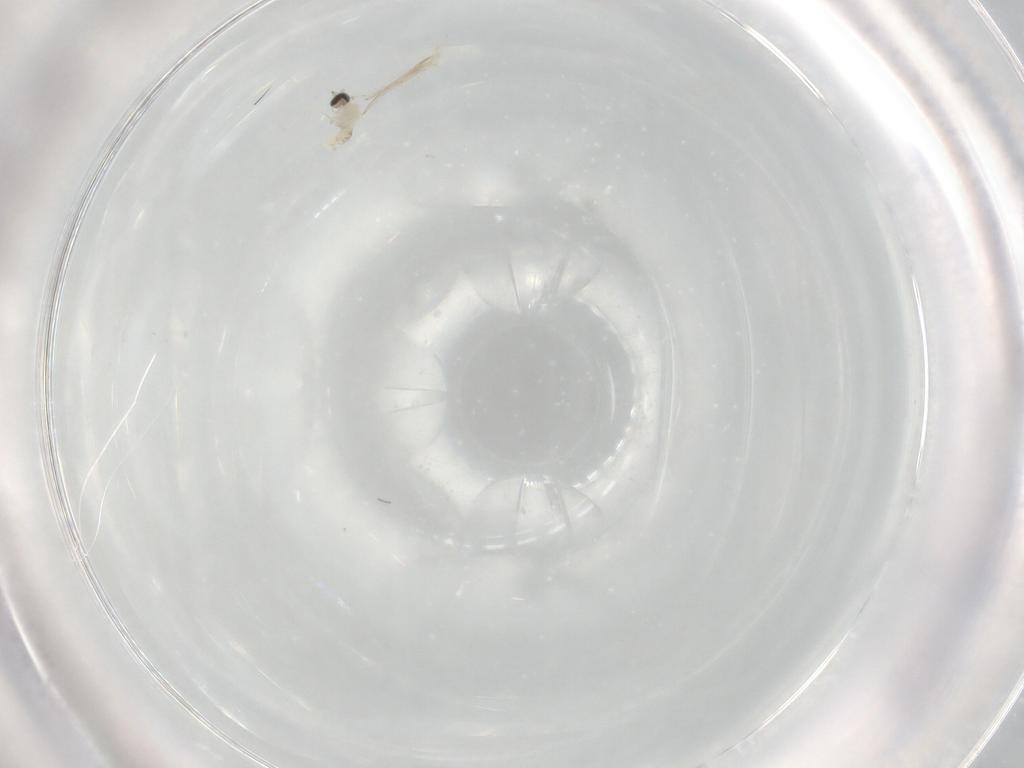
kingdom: Animalia
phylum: Arthropoda
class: Insecta
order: Diptera
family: Cecidomyiidae
